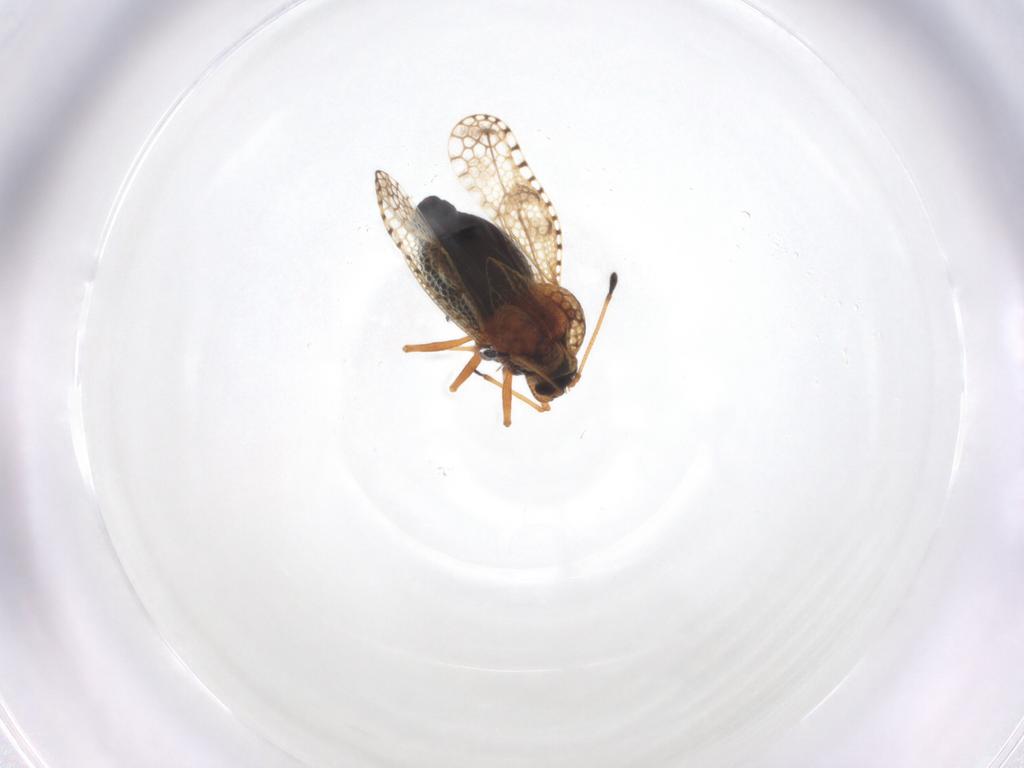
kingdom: Animalia
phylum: Arthropoda
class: Insecta
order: Hemiptera
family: Tingidae
